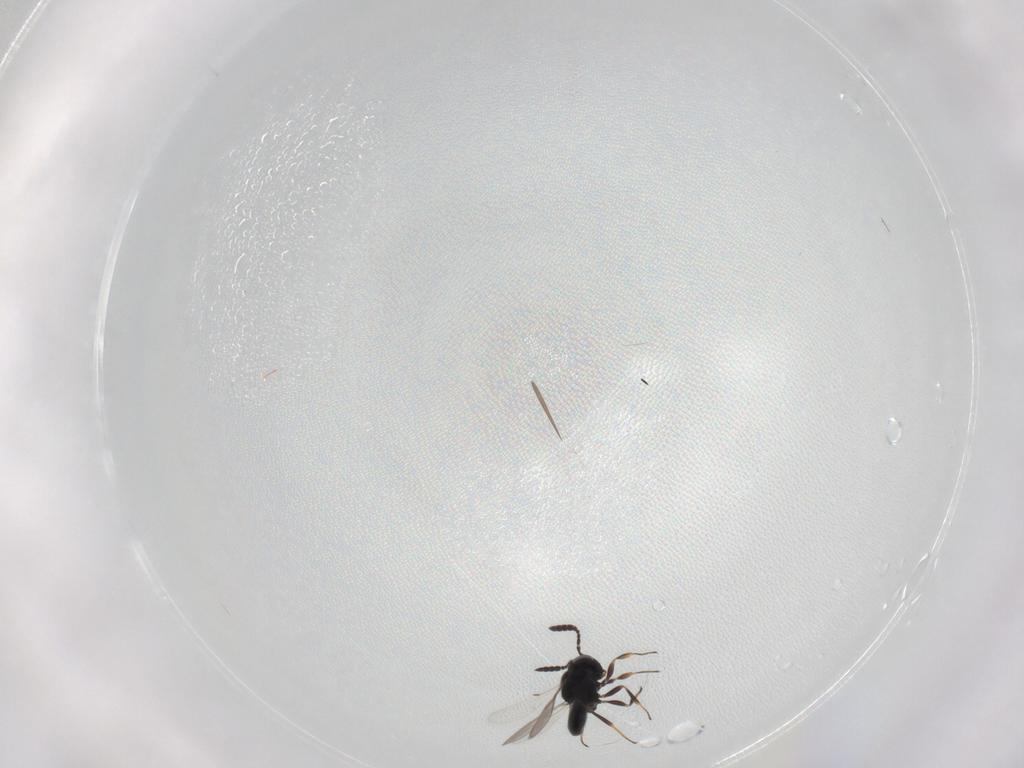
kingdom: Animalia
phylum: Arthropoda
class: Insecta
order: Hymenoptera
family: Scelionidae
